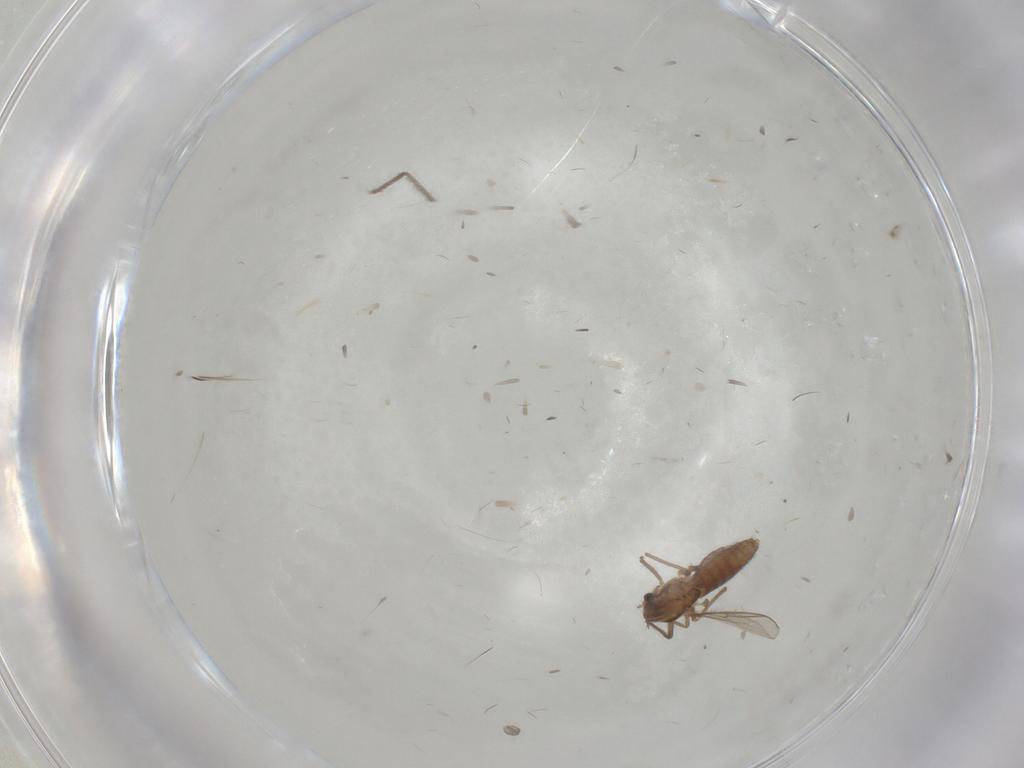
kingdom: Animalia
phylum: Arthropoda
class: Insecta
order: Diptera
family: Chironomidae
